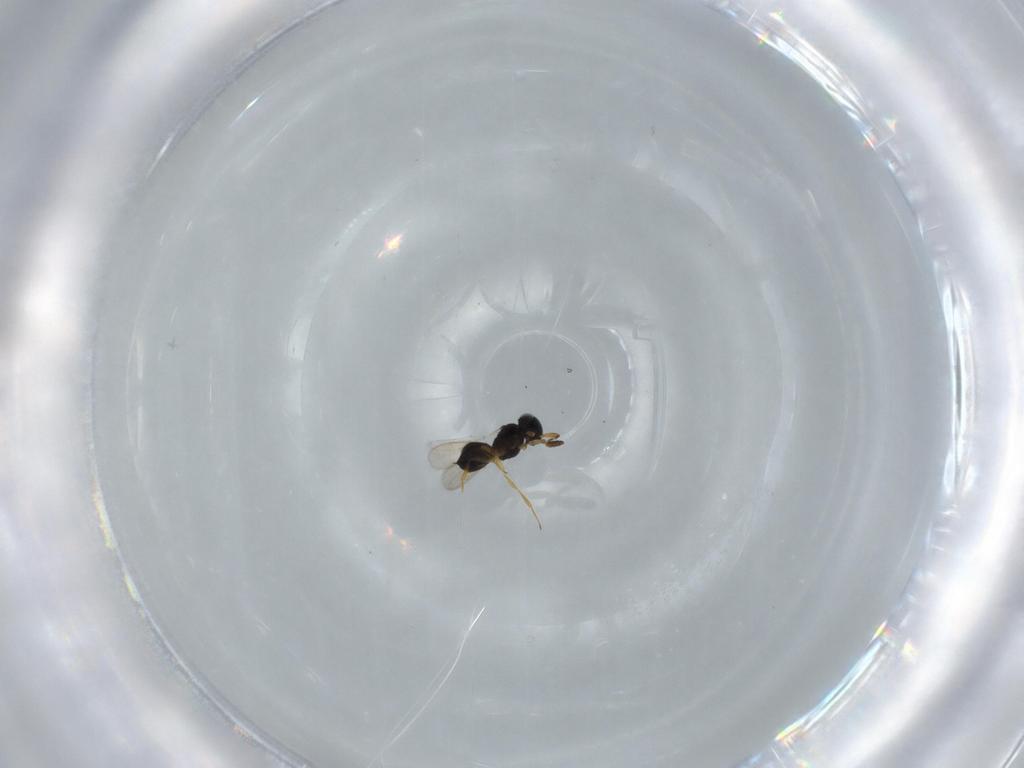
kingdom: Animalia
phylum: Arthropoda
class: Insecta
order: Hymenoptera
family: Scelionidae
